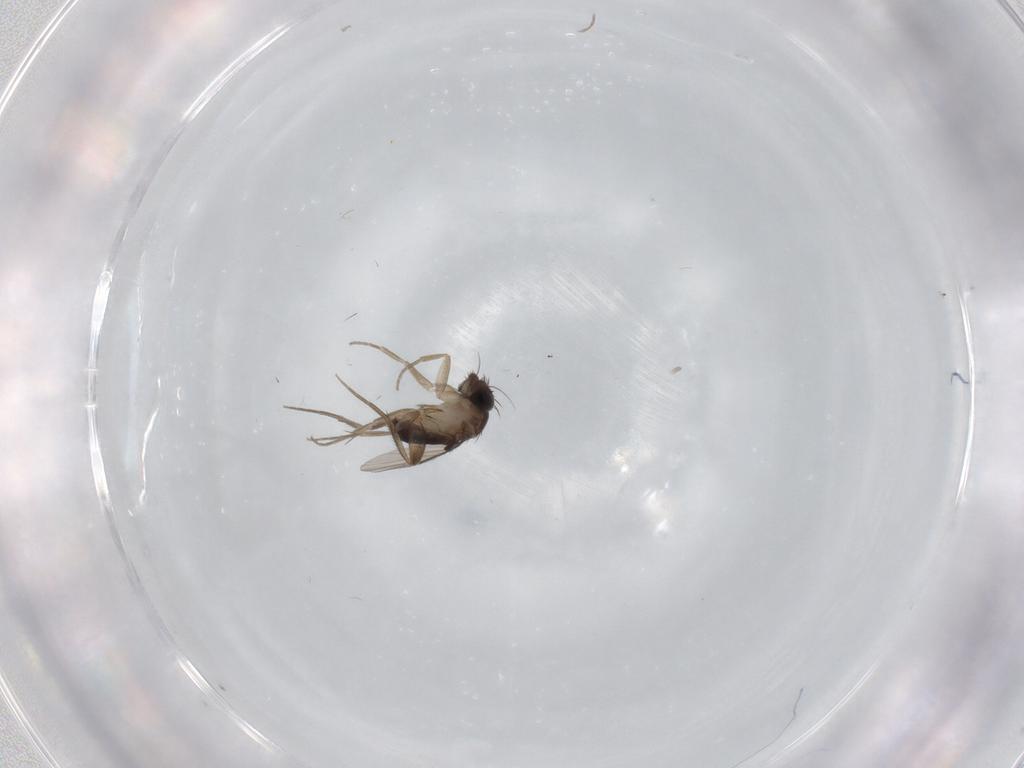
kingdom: Animalia
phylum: Arthropoda
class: Insecta
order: Diptera
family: Phoridae
